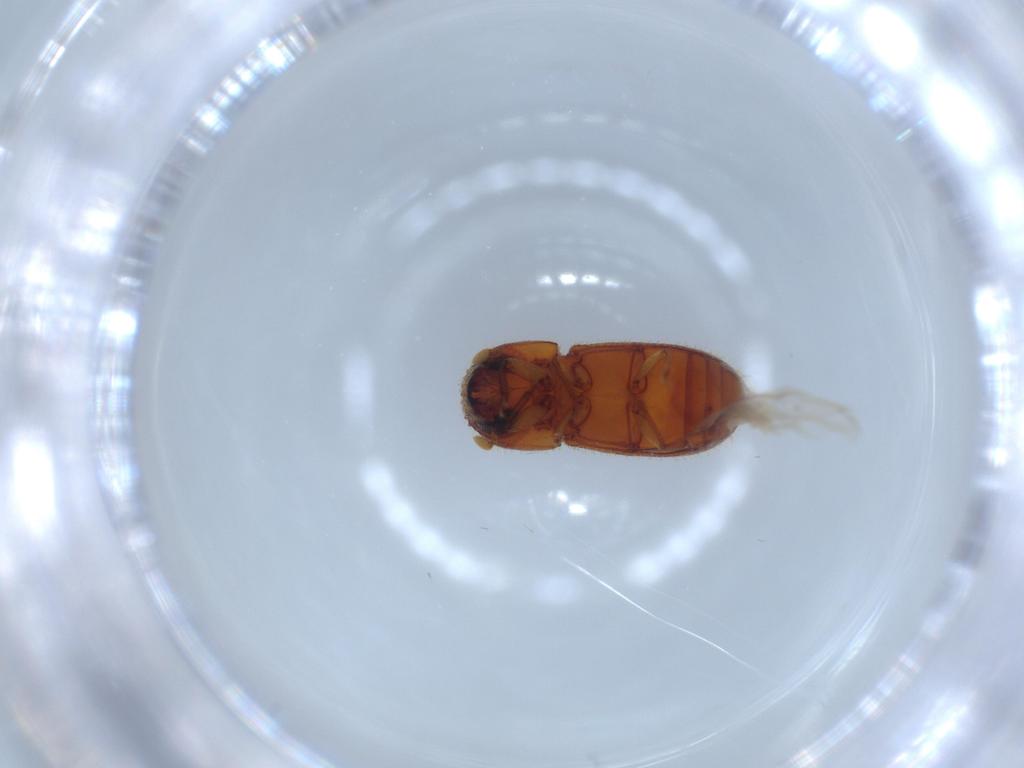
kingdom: Animalia
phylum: Arthropoda
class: Insecta
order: Coleoptera
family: Curculionidae
